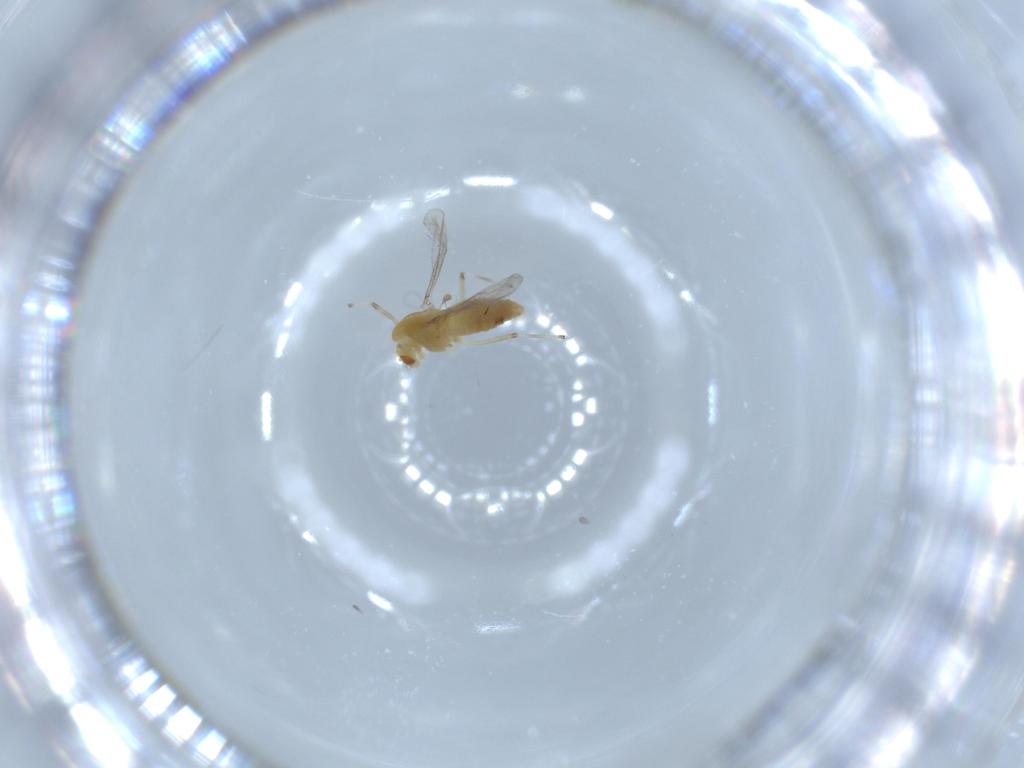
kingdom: Animalia
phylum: Arthropoda
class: Insecta
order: Diptera
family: Chironomidae
